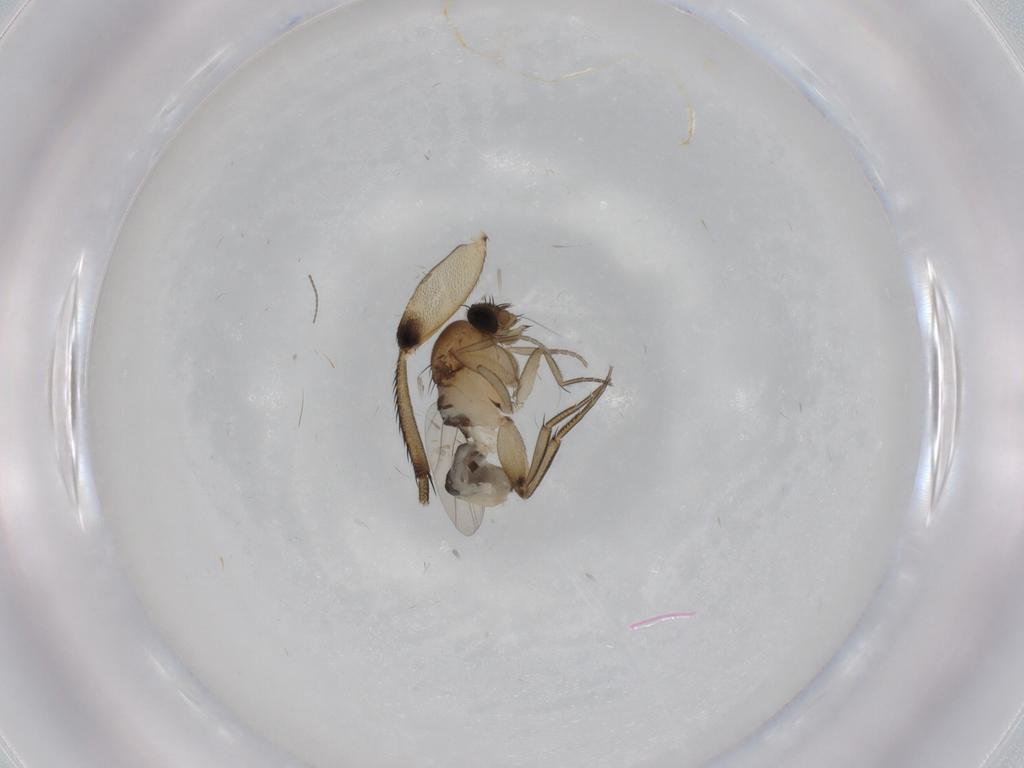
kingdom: Animalia
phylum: Arthropoda
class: Insecta
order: Diptera
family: Phoridae
